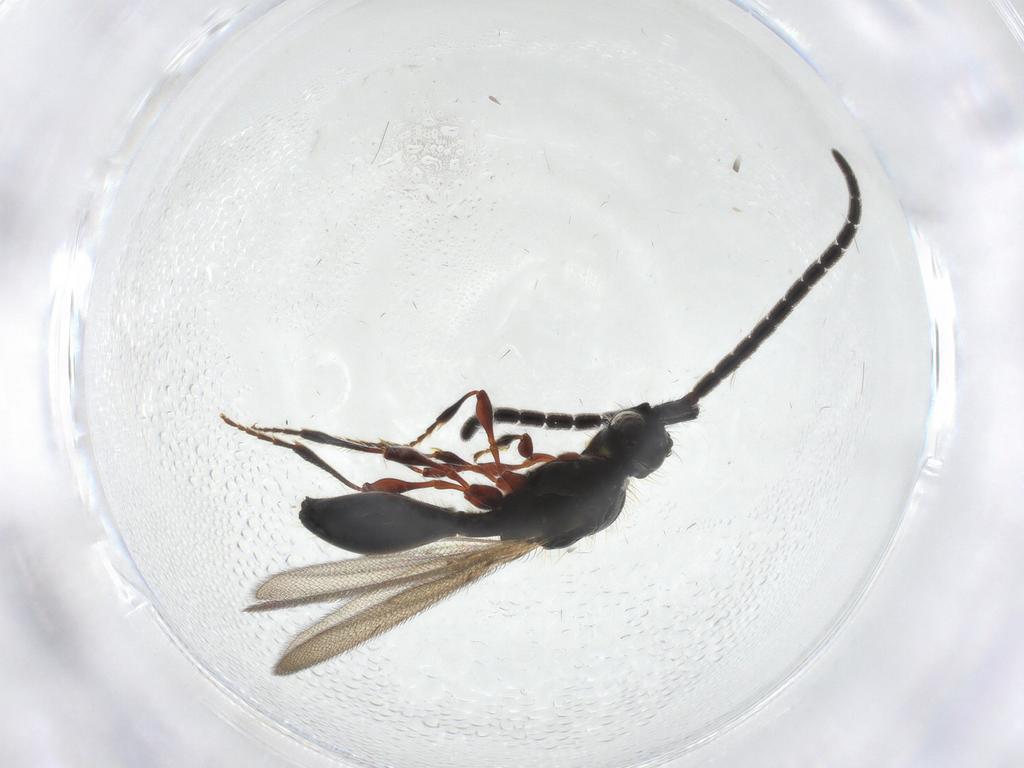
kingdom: Animalia
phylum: Arthropoda
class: Insecta
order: Hymenoptera
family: Diapriidae
